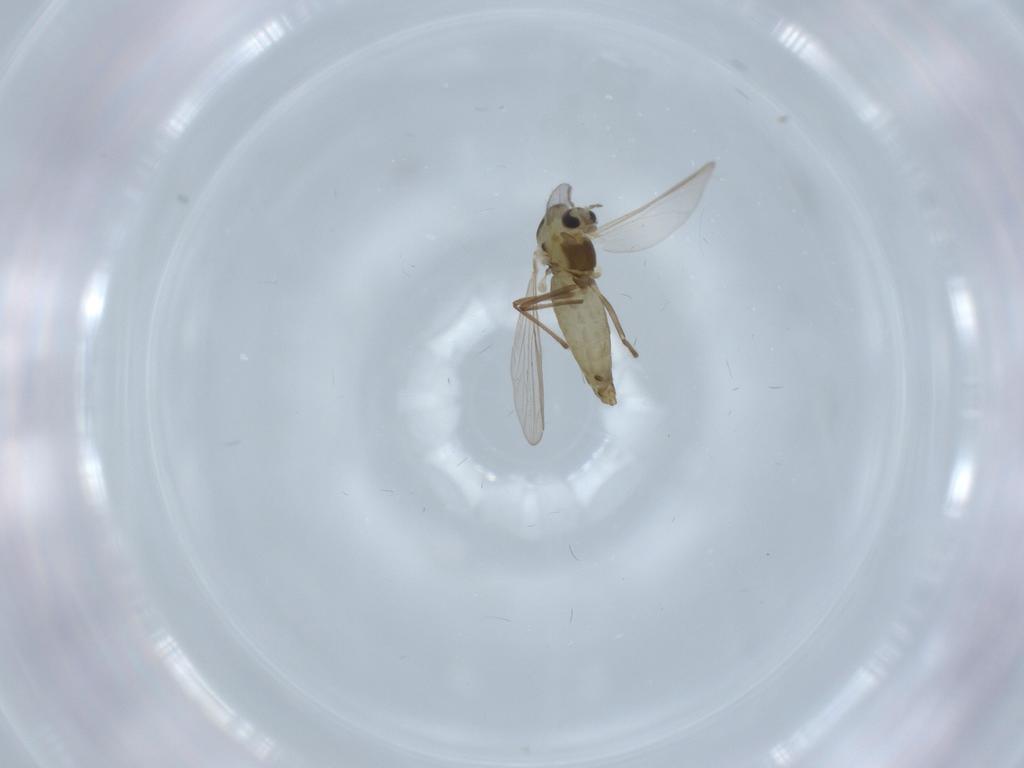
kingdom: Animalia
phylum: Arthropoda
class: Insecta
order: Diptera
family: Chironomidae
